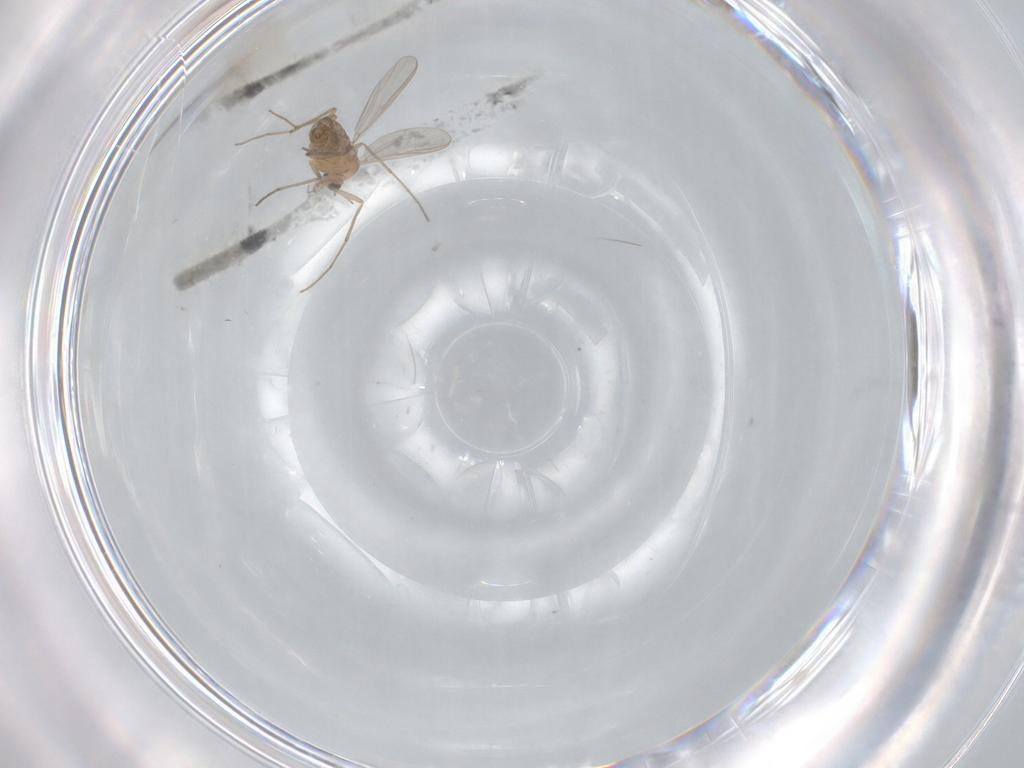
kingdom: Animalia
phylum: Arthropoda
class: Insecta
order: Diptera
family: Chironomidae
